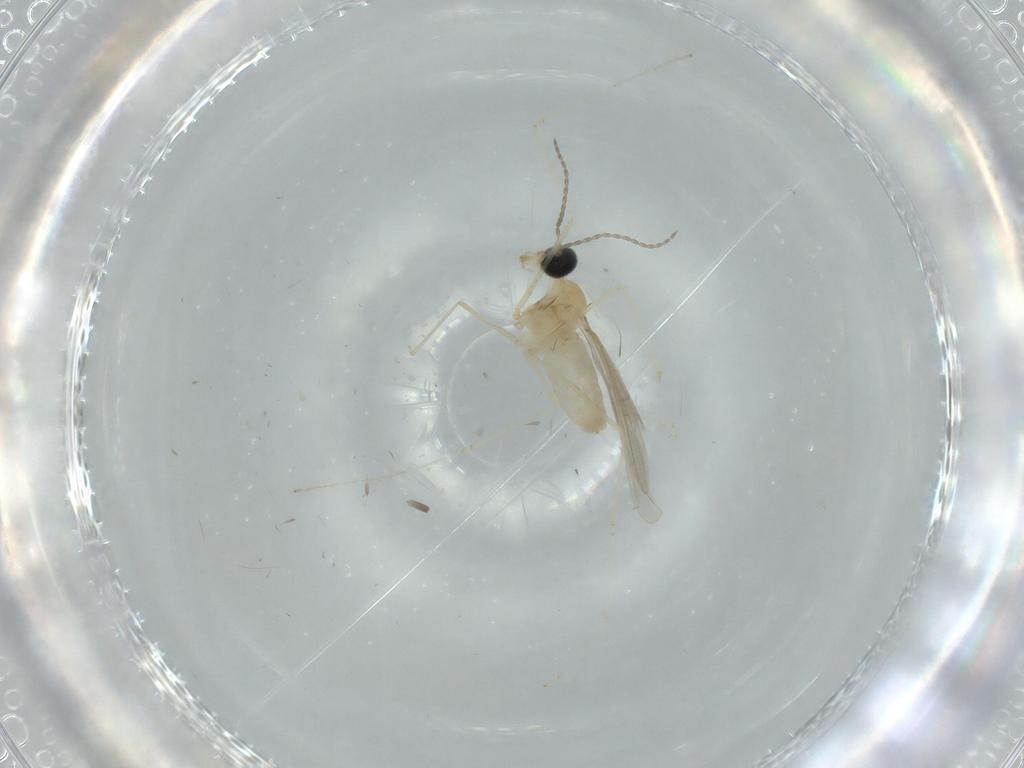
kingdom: Animalia
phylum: Arthropoda
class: Insecta
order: Diptera
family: Cecidomyiidae
